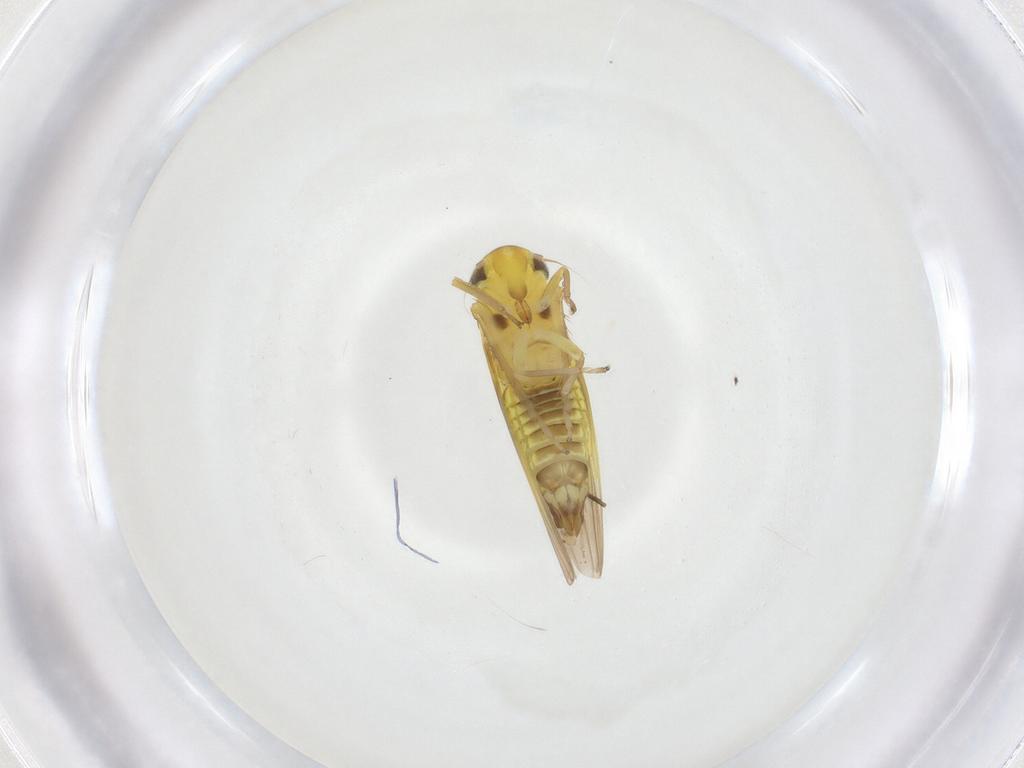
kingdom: Animalia
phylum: Arthropoda
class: Insecta
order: Hemiptera
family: Cicadellidae
